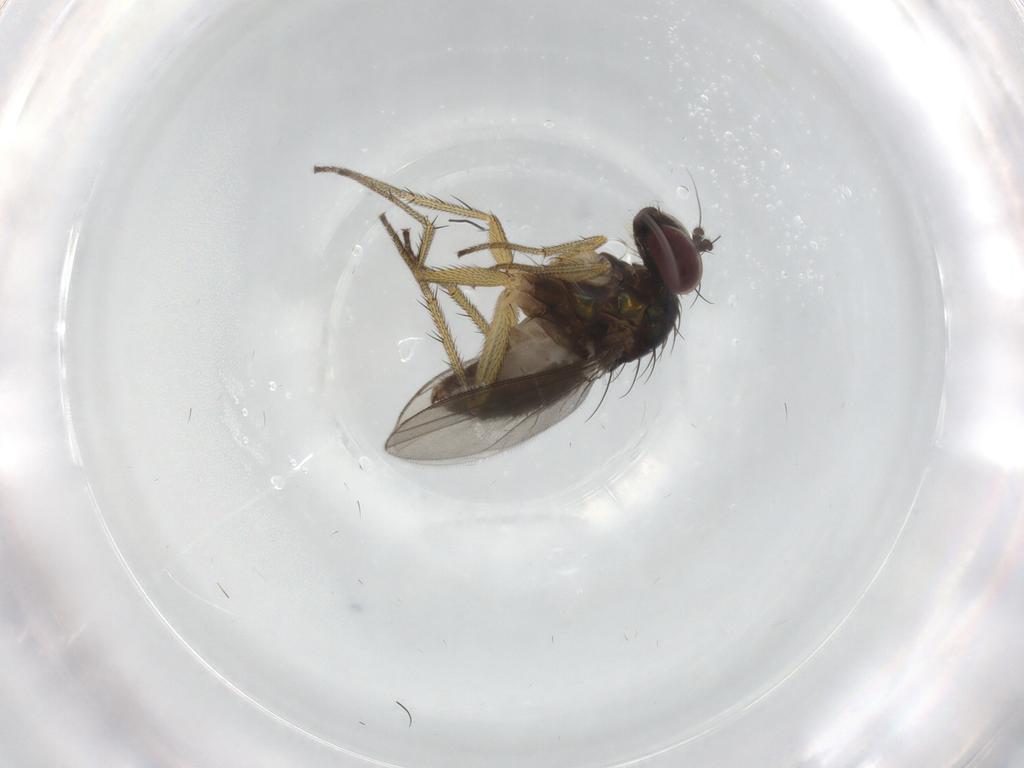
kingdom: Animalia
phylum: Arthropoda
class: Insecta
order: Diptera
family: Dolichopodidae
